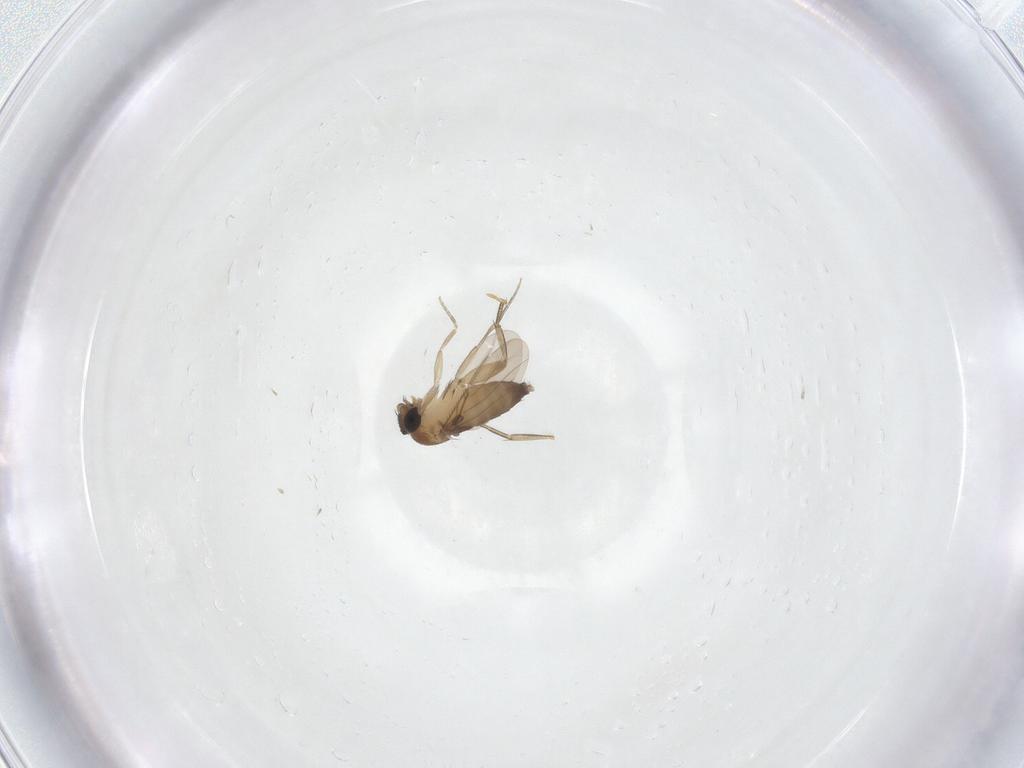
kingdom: Animalia
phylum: Arthropoda
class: Insecta
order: Diptera
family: Phoridae
